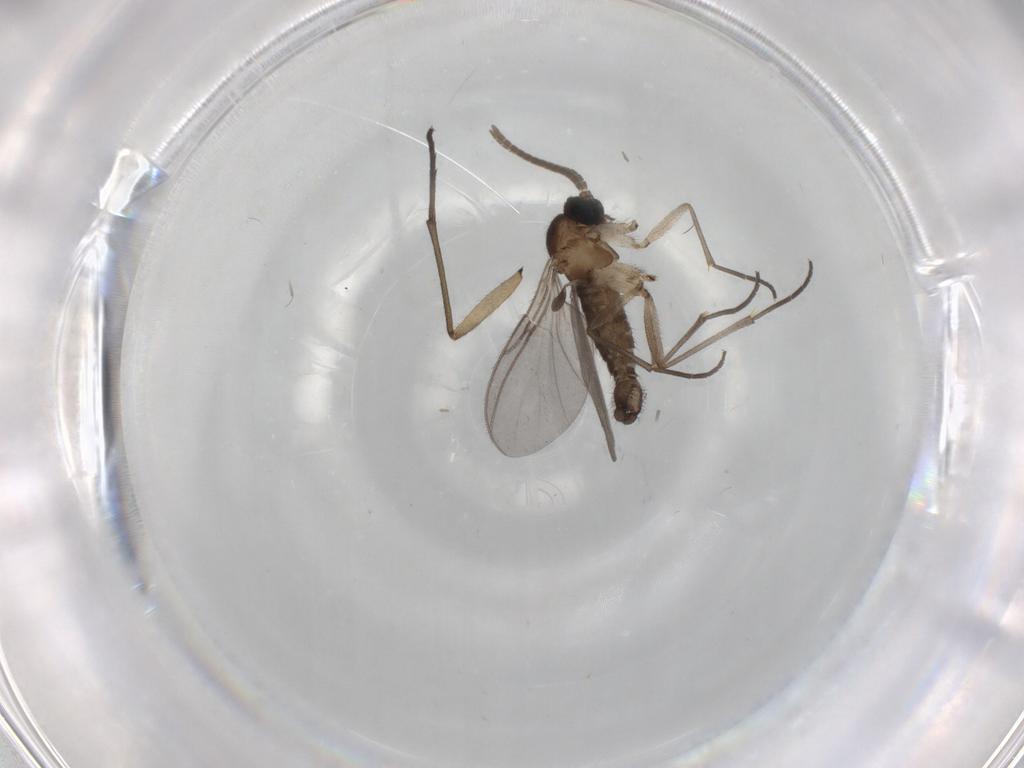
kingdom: Animalia
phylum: Arthropoda
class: Insecta
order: Diptera
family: Sciaridae
